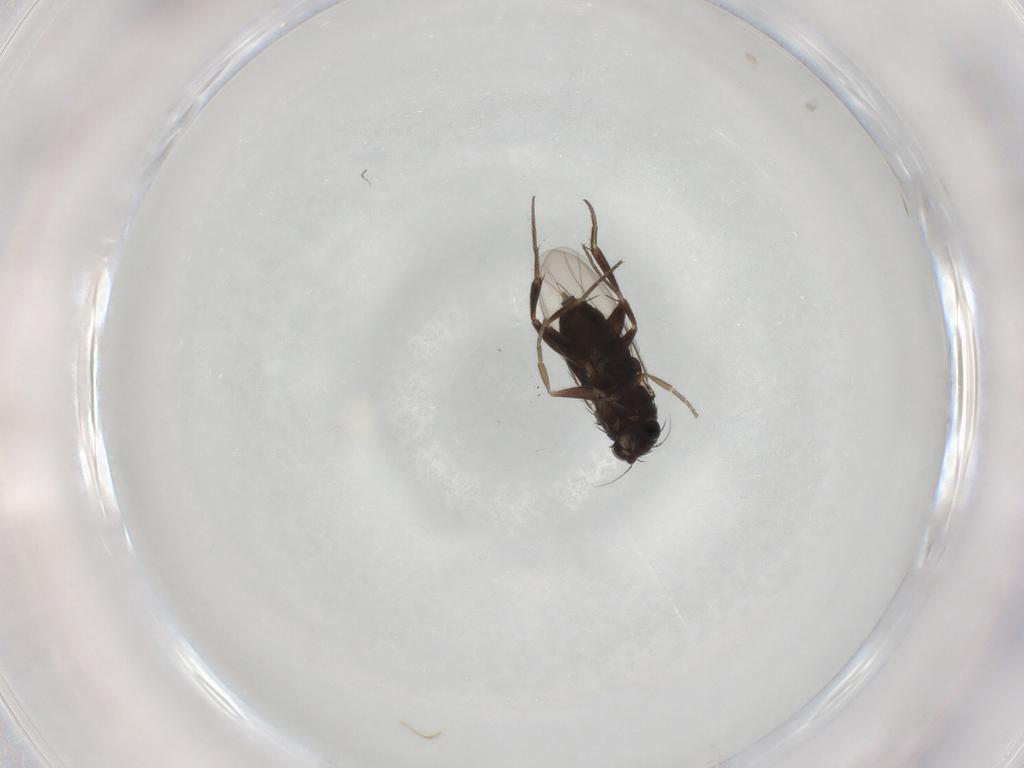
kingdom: Animalia
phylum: Arthropoda
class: Insecta
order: Diptera
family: Phoridae
